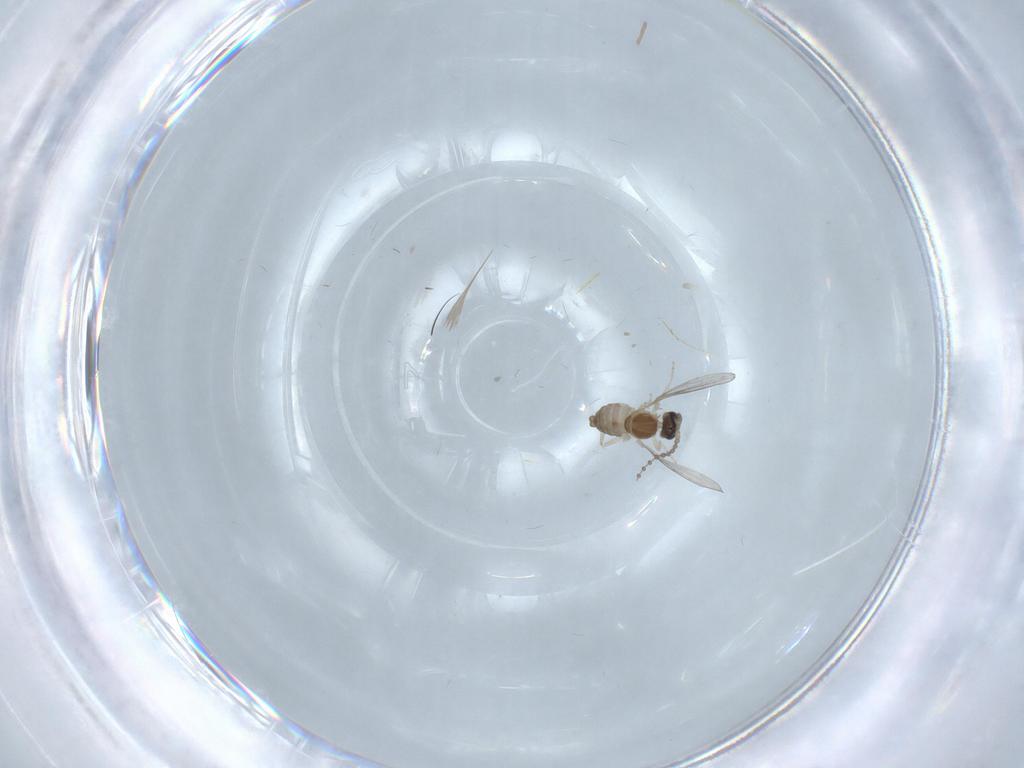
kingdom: Animalia
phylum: Arthropoda
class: Insecta
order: Diptera
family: Cecidomyiidae
